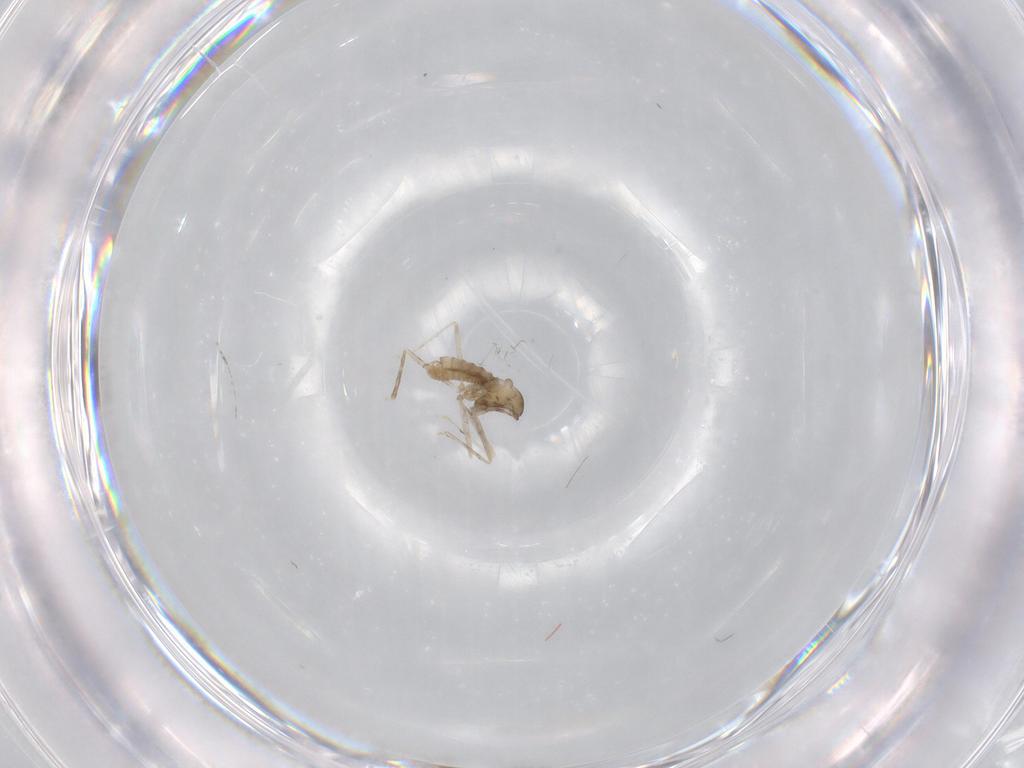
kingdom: Animalia
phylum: Arthropoda
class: Insecta
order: Diptera
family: Cecidomyiidae
